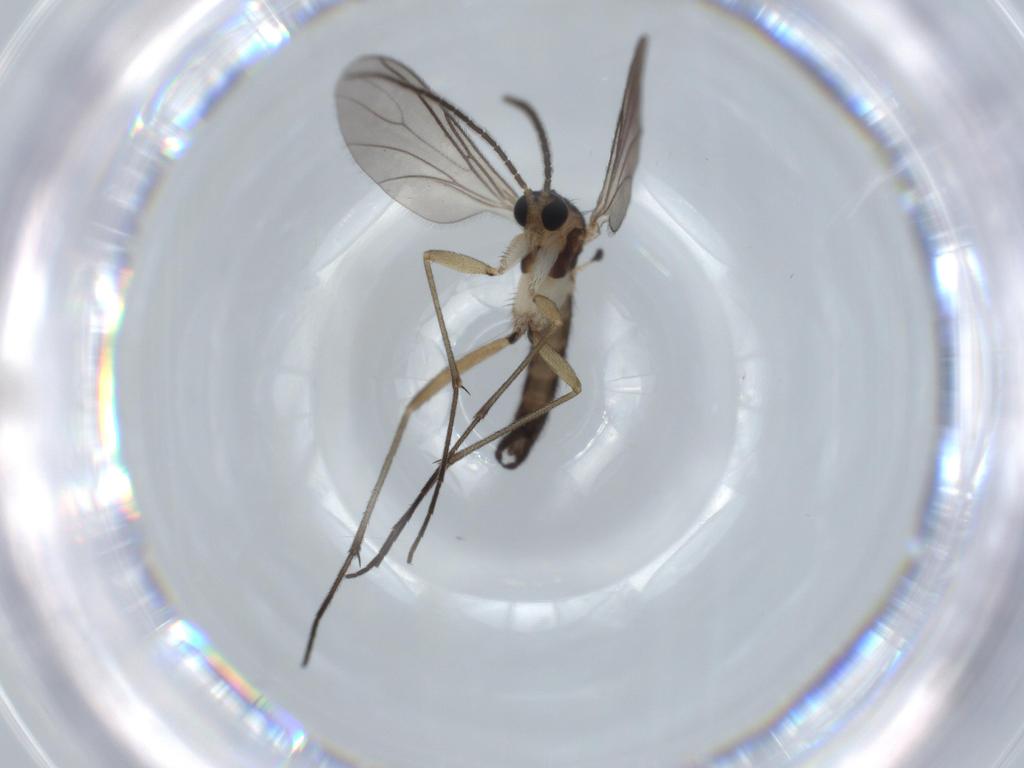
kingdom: Animalia
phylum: Arthropoda
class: Insecta
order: Diptera
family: Sciaridae
